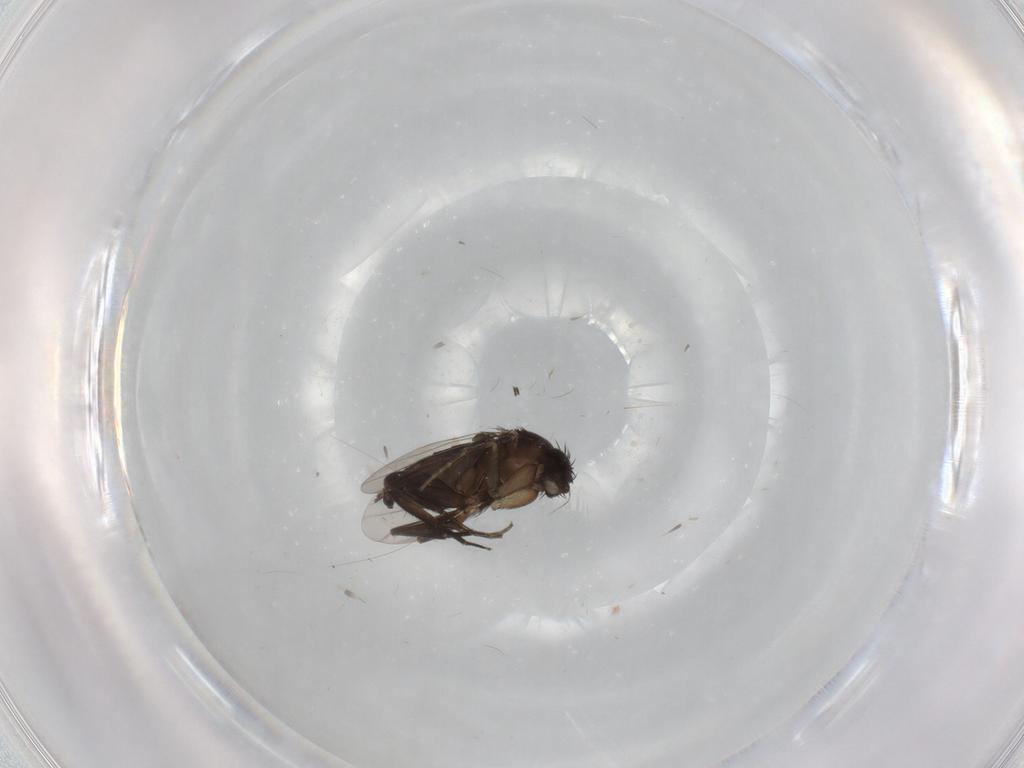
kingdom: Animalia
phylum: Arthropoda
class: Insecta
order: Diptera
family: Phoridae
